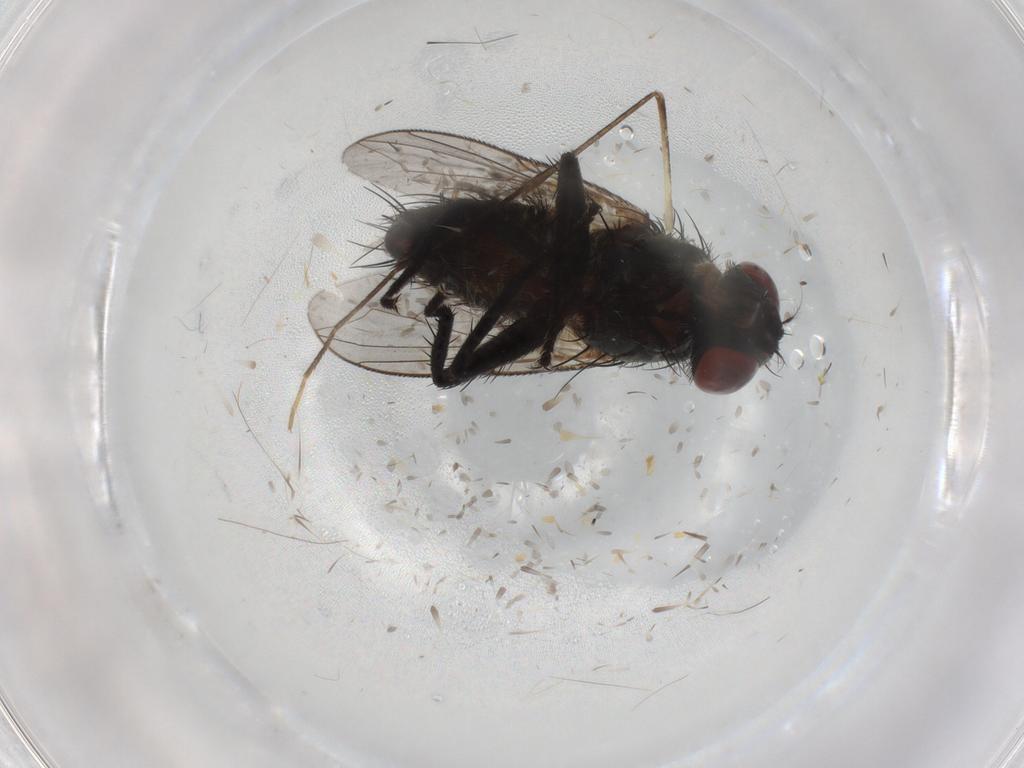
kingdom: Animalia
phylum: Arthropoda
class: Insecta
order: Diptera
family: Sarcophagidae
